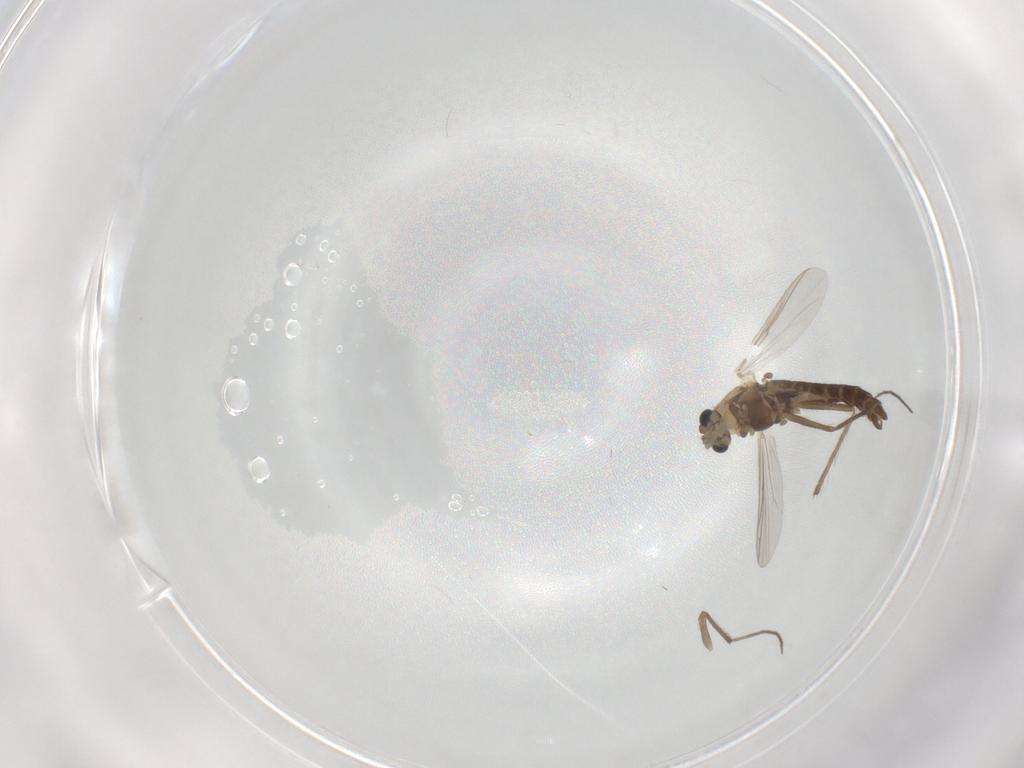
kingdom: Animalia
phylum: Arthropoda
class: Insecta
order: Diptera
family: Chironomidae
